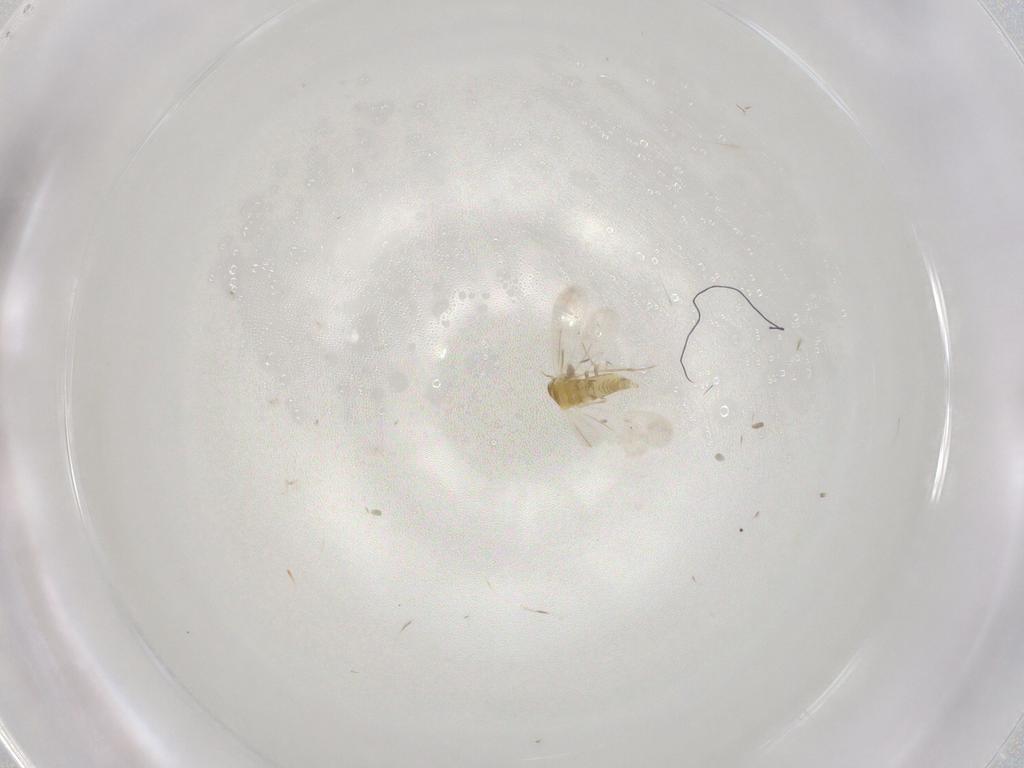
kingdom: Animalia
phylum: Arthropoda
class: Insecta
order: Hemiptera
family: Aleyrodidae
